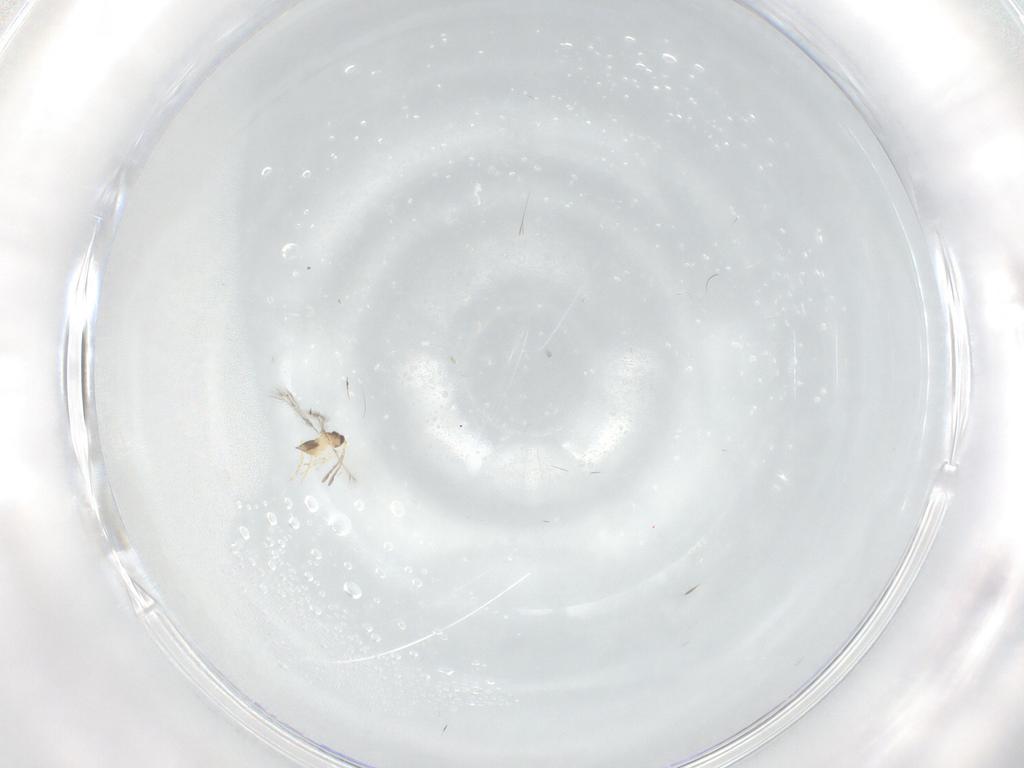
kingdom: Animalia
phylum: Arthropoda
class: Insecta
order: Hymenoptera
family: Mymaridae
